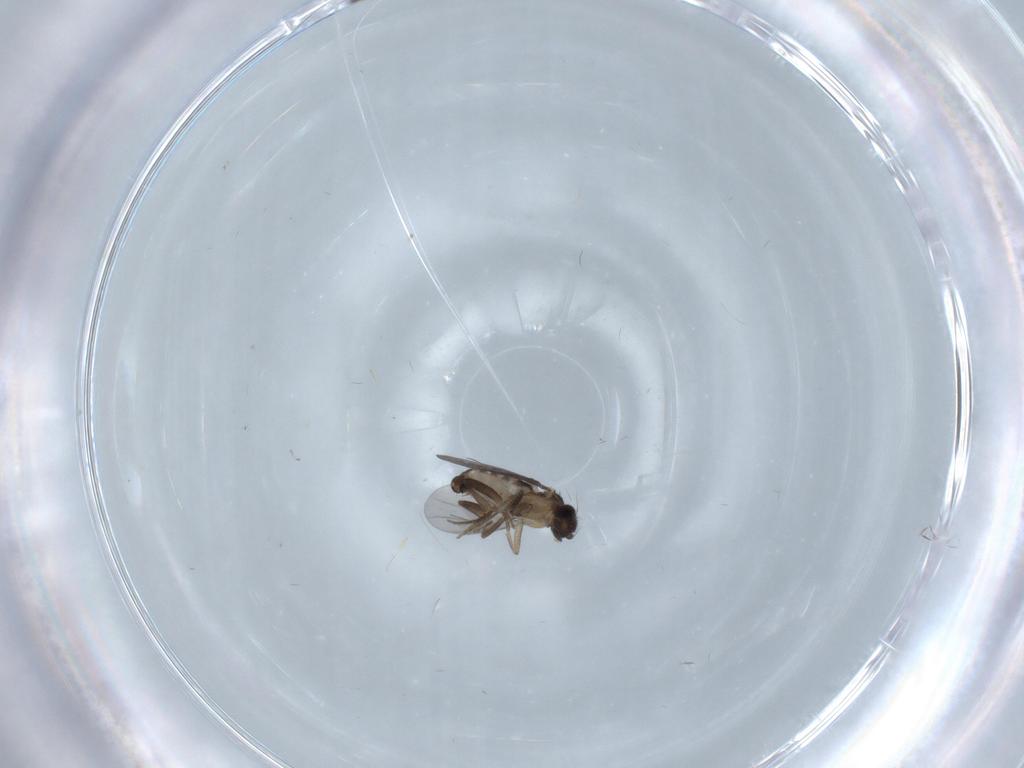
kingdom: Animalia
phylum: Arthropoda
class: Insecta
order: Diptera
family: Phoridae
